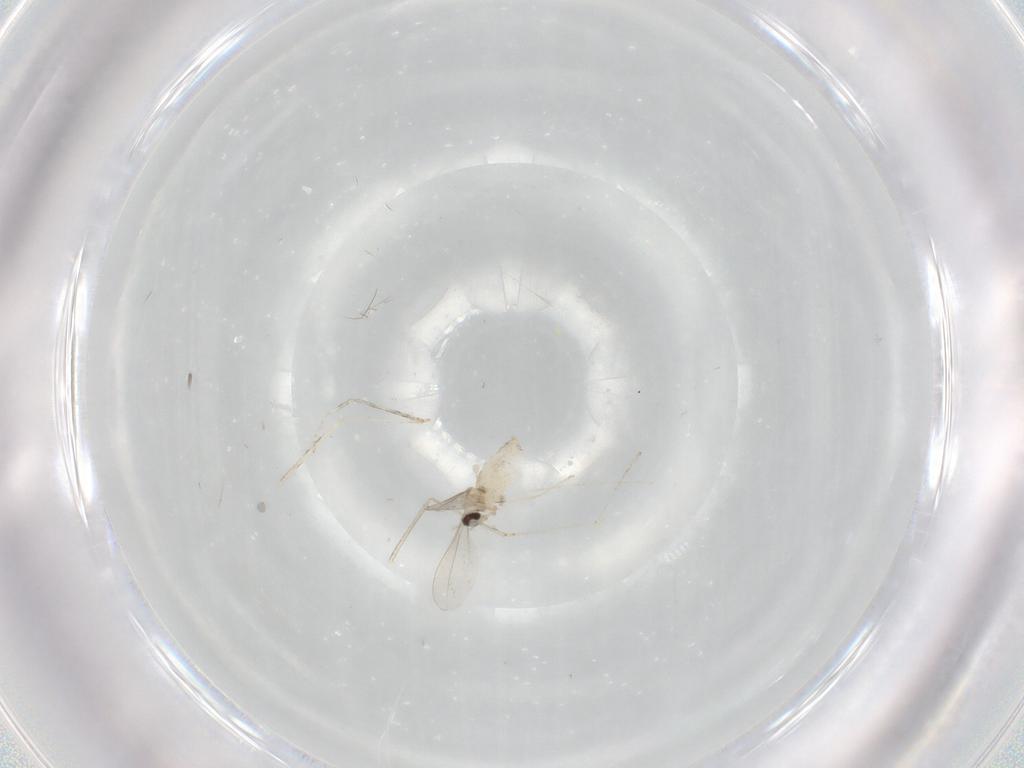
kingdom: Animalia
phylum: Arthropoda
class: Insecta
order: Diptera
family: Cecidomyiidae
